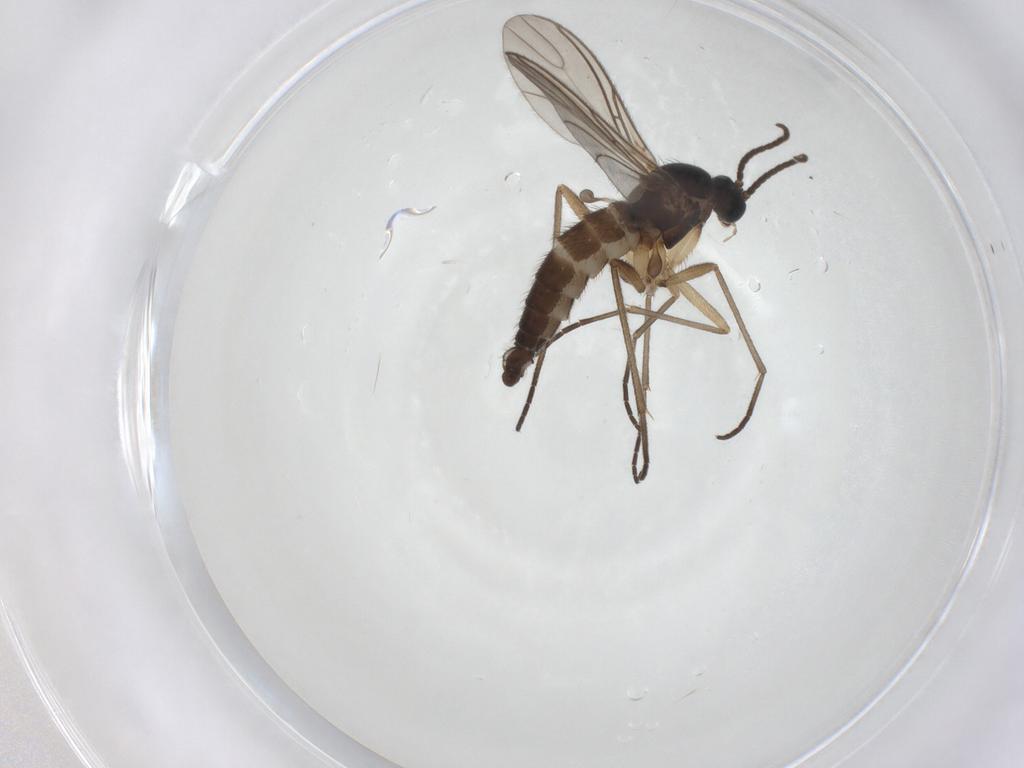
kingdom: Animalia
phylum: Arthropoda
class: Insecta
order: Diptera
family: Sciaridae
